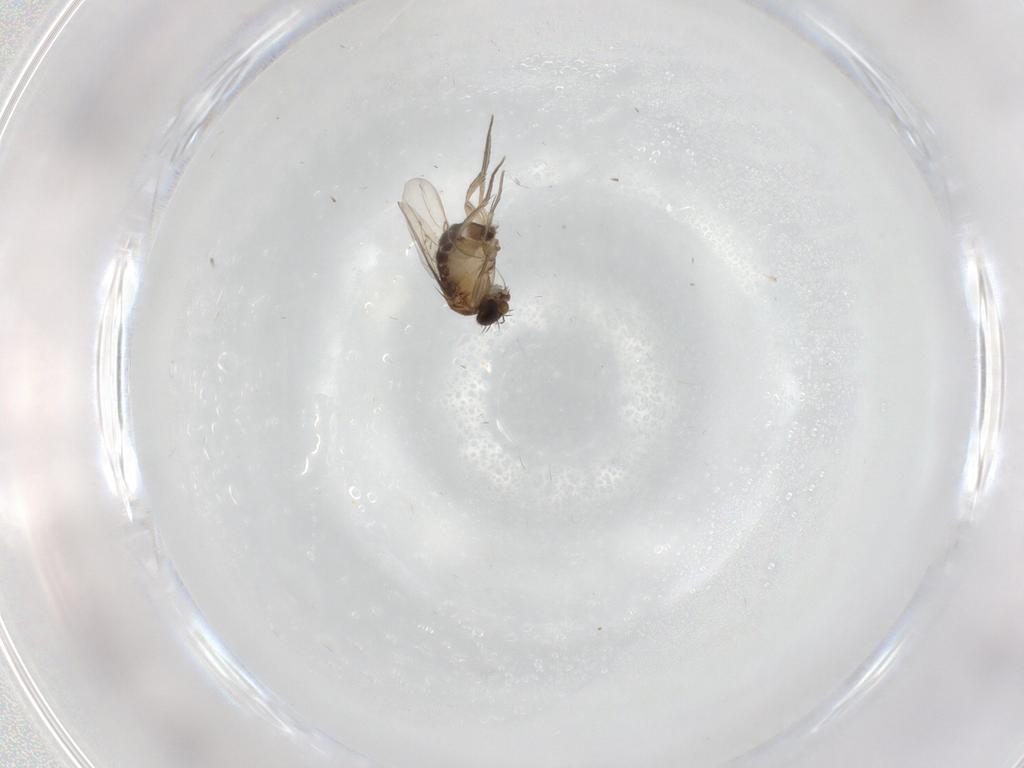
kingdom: Animalia
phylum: Arthropoda
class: Insecta
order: Diptera
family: Phoridae
